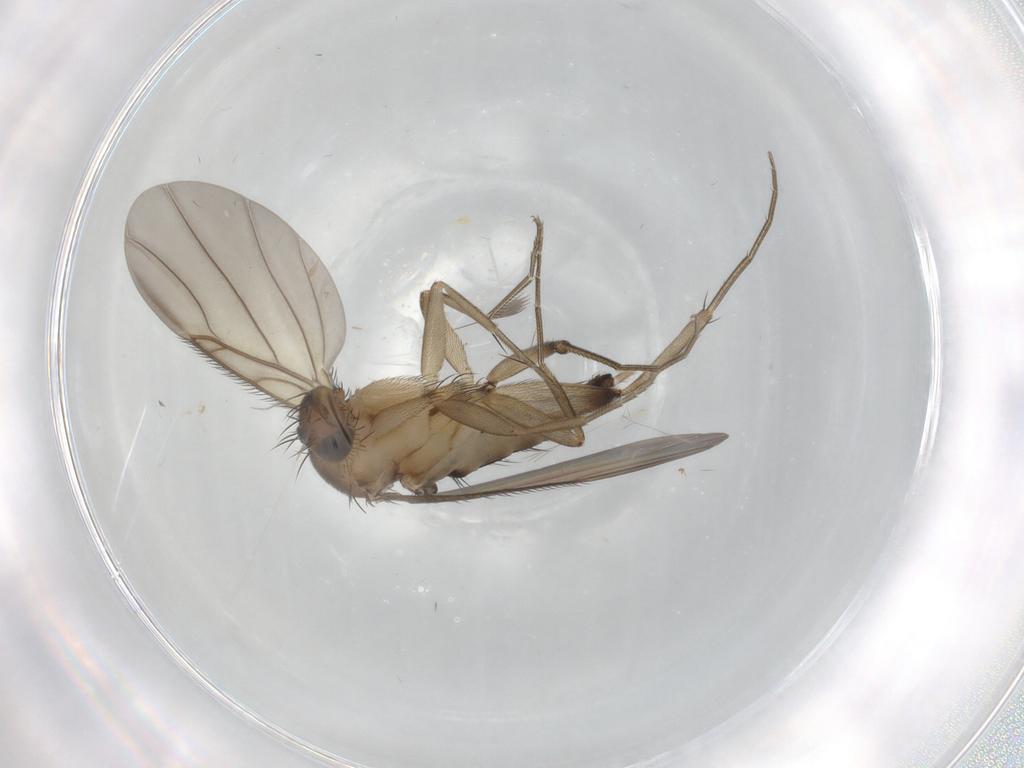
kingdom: Animalia
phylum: Arthropoda
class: Insecta
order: Diptera
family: Phoridae
